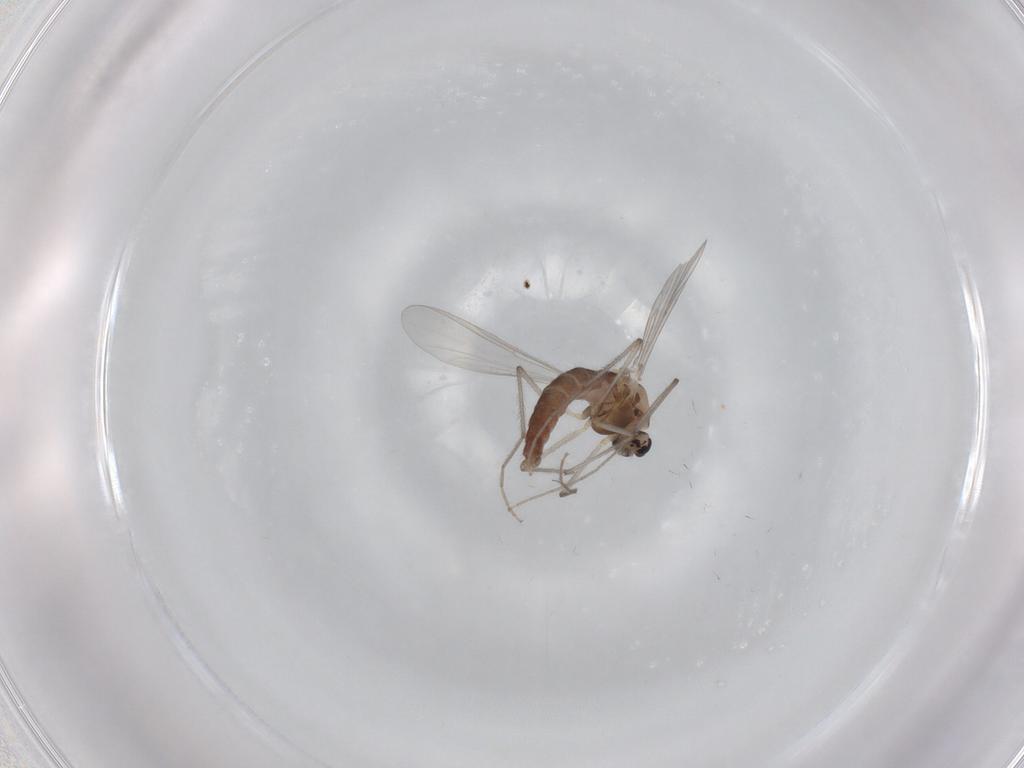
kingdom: Animalia
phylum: Arthropoda
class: Insecta
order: Diptera
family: Chironomidae
